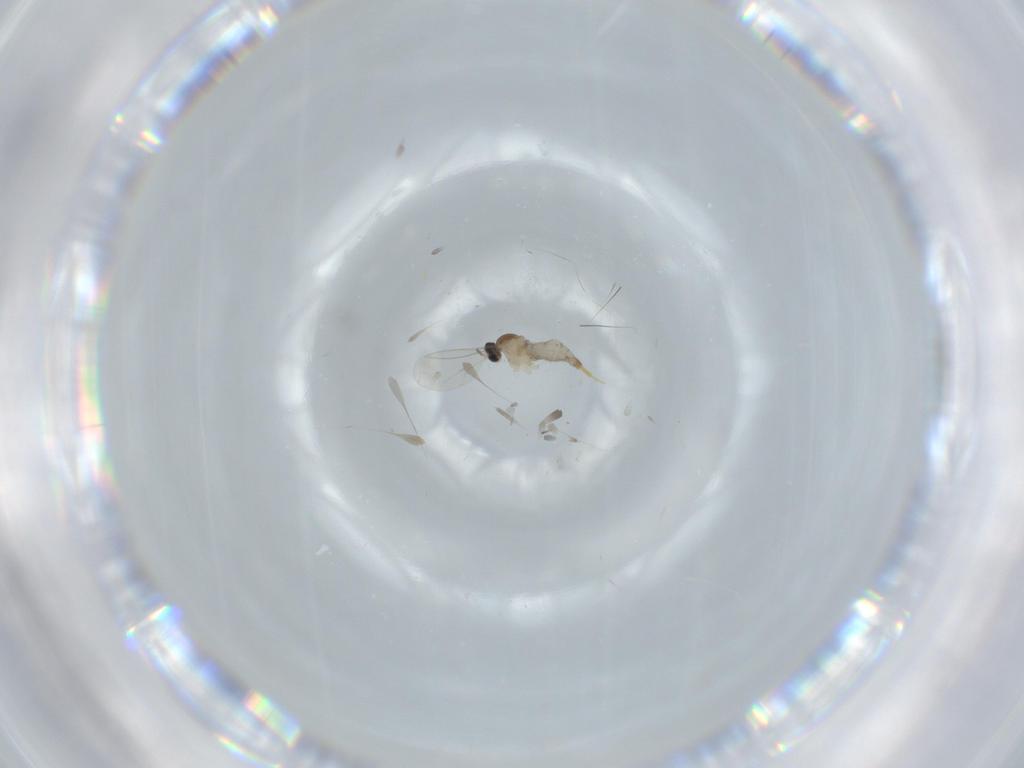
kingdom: Animalia
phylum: Arthropoda
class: Insecta
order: Diptera
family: Cecidomyiidae
